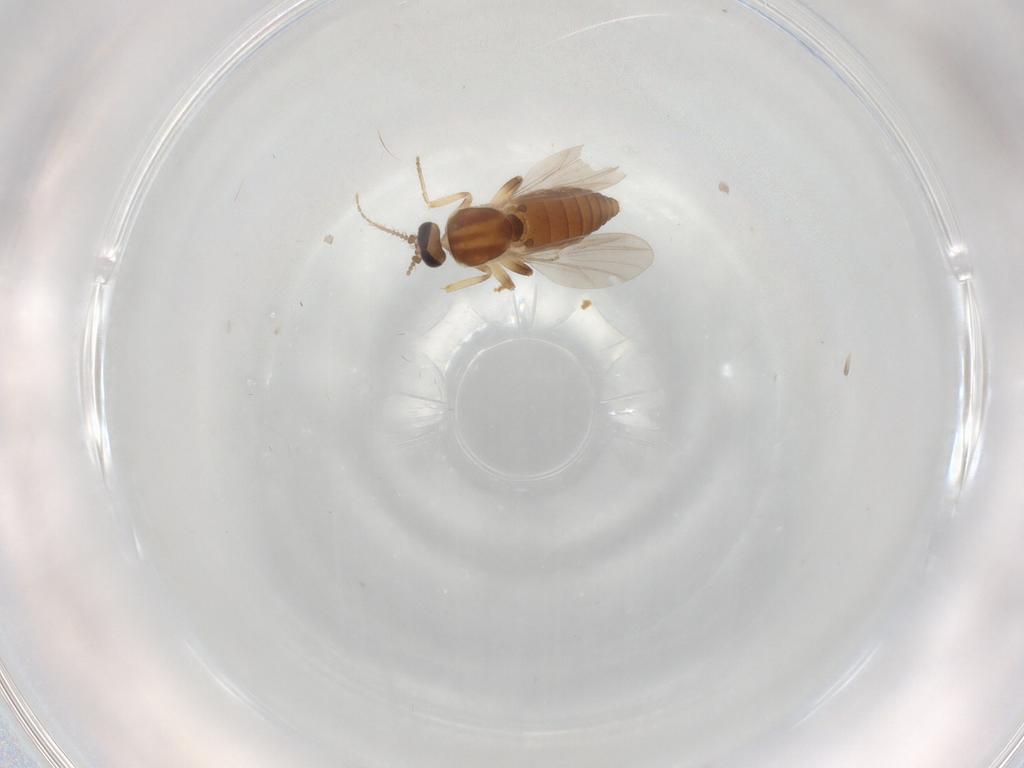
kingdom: Animalia
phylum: Arthropoda
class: Insecta
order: Diptera
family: Ceratopogonidae
